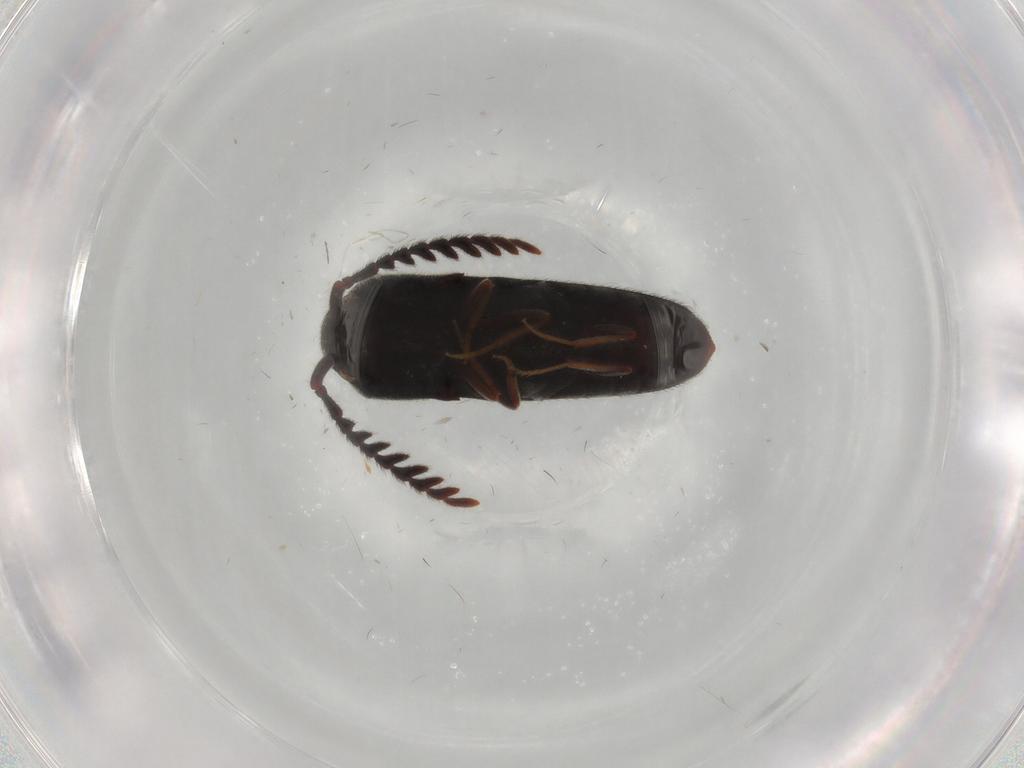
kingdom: Animalia
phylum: Arthropoda
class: Insecta
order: Coleoptera
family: Eucnemidae
